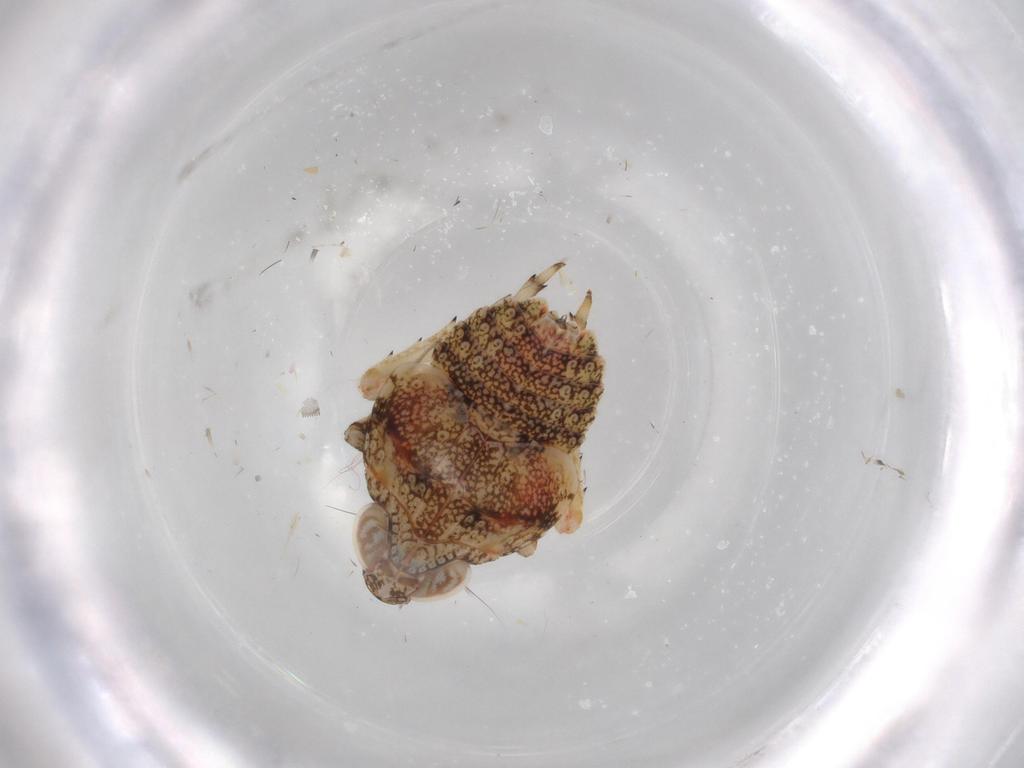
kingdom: Animalia
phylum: Arthropoda
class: Insecta
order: Hemiptera
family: Issidae
